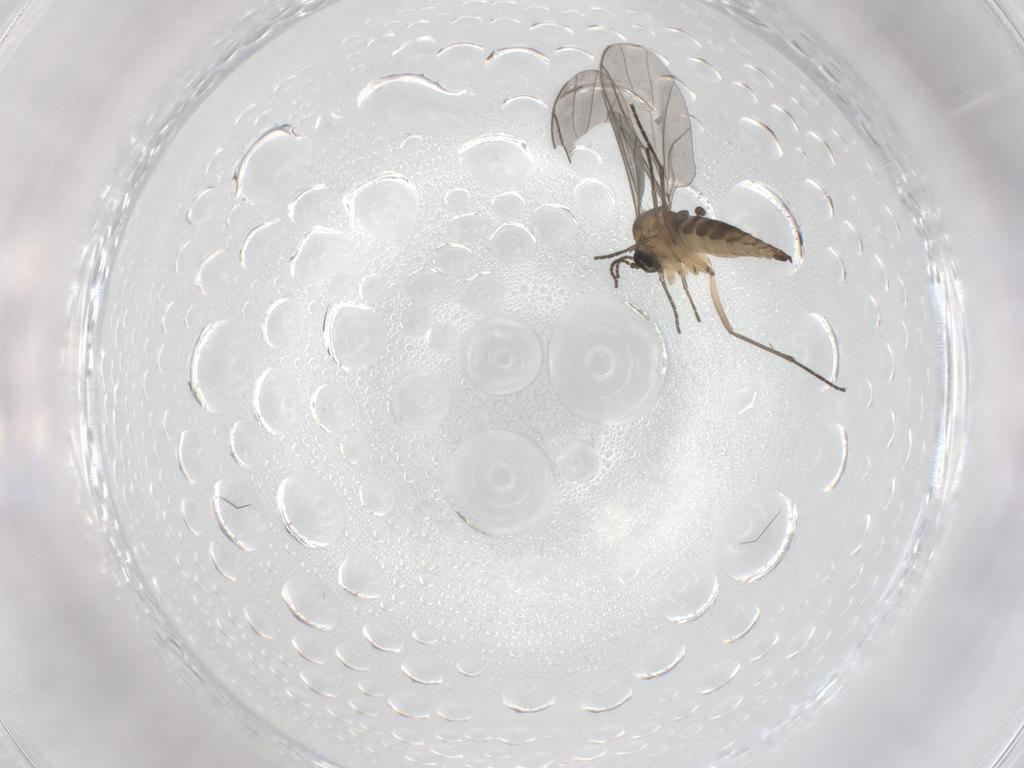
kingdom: Animalia
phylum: Arthropoda
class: Insecta
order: Diptera
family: Sciaridae
